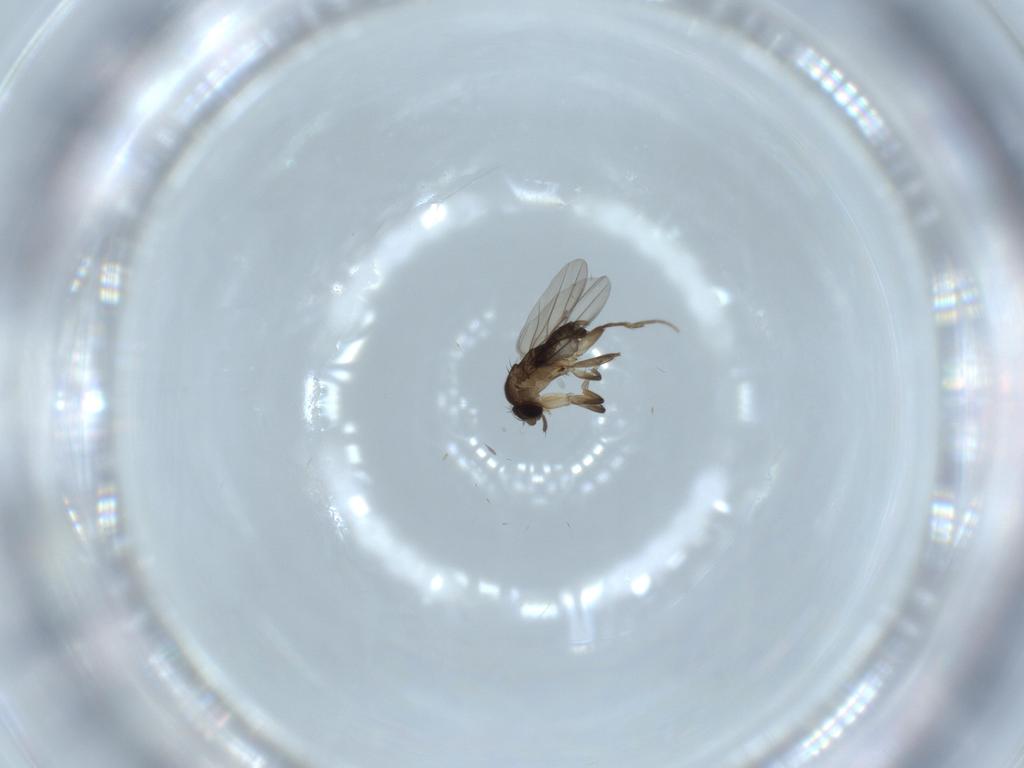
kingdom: Animalia
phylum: Arthropoda
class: Insecta
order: Diptera
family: Phoridae
